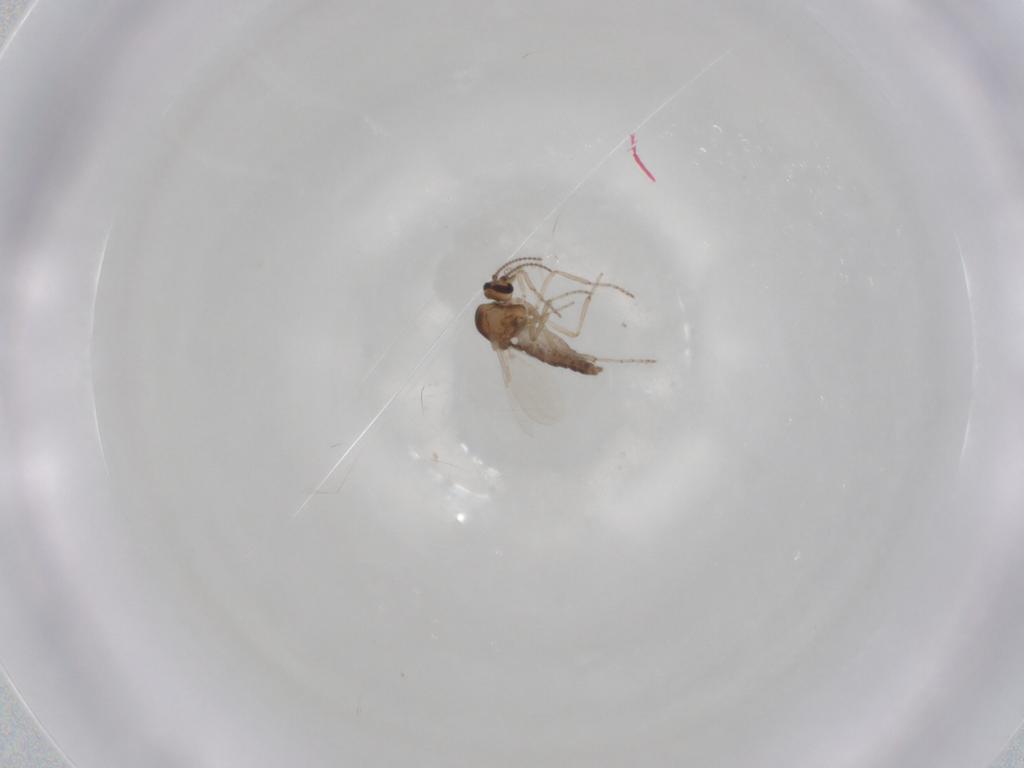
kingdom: Animalia
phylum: Arthropoda
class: Insecta
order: Diptera
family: Ceratopogonidae
